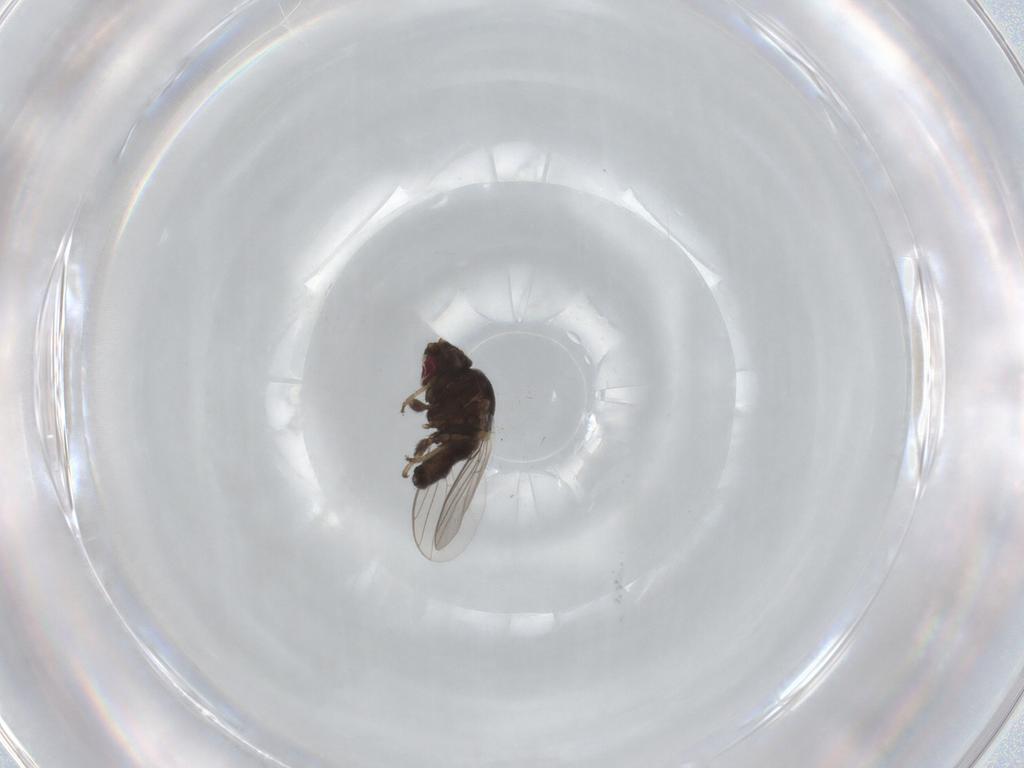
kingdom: Animalia
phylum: Arthropoda
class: Insecta
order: Diptera
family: Chloropidae
